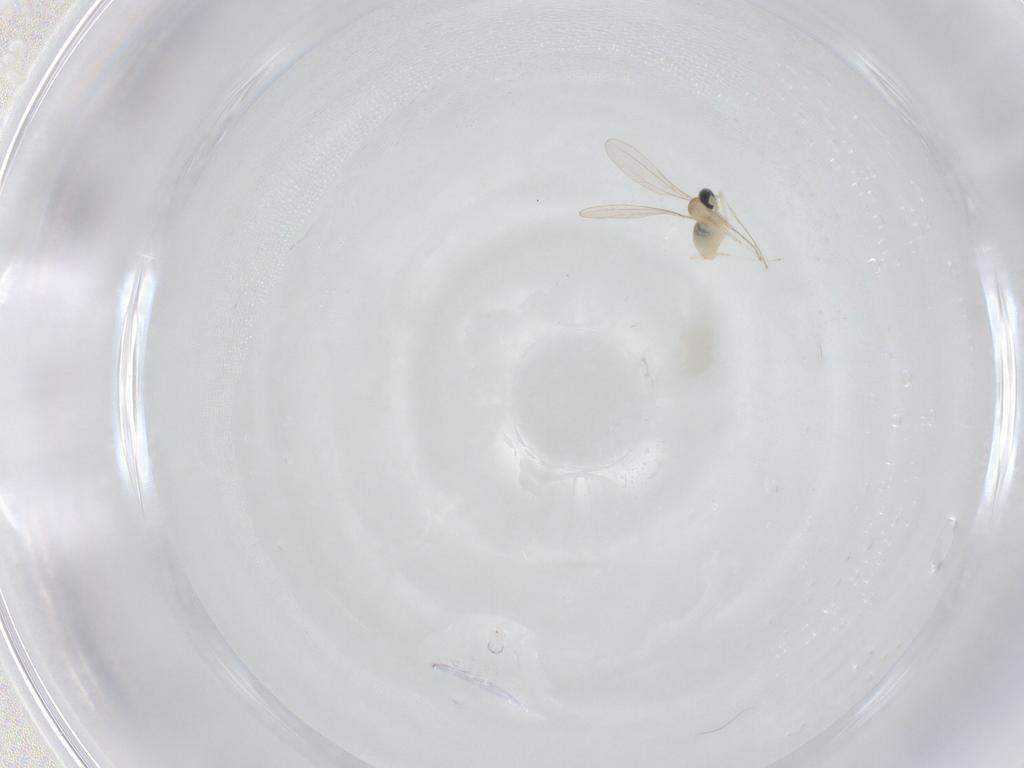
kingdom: Animalia
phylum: Arthropoda
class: Insecta
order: Diptera
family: Cecidomyiidae
